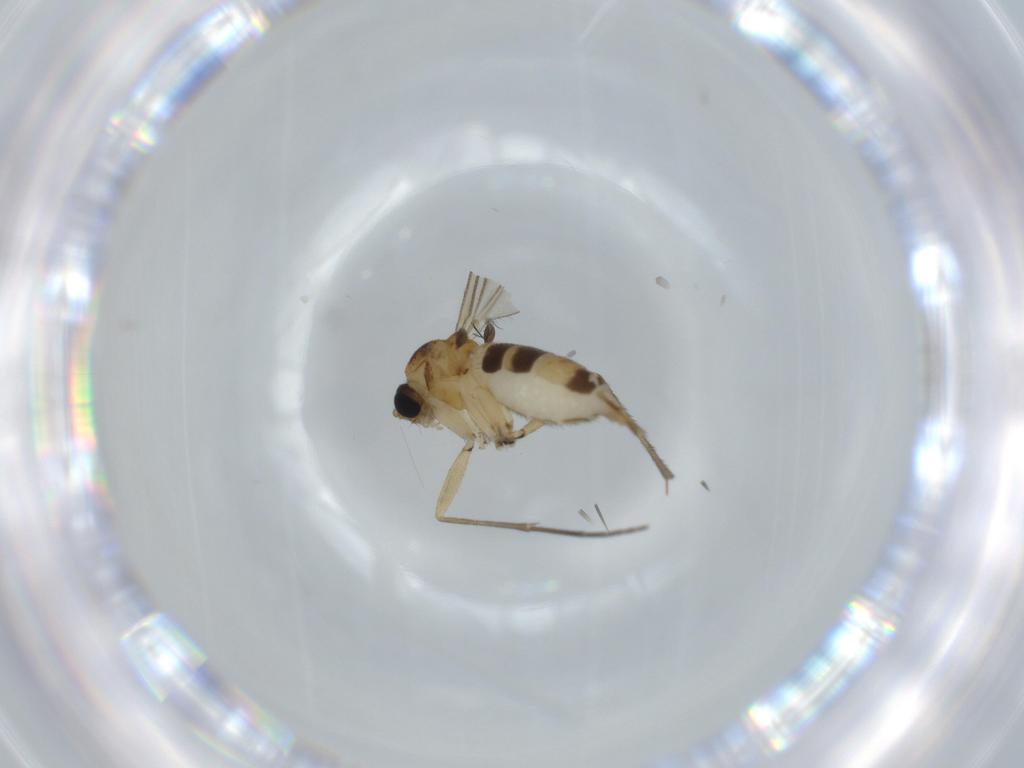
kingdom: Animalia
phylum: Arthropoda
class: Insecta
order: Diptera
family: Sciaridae
